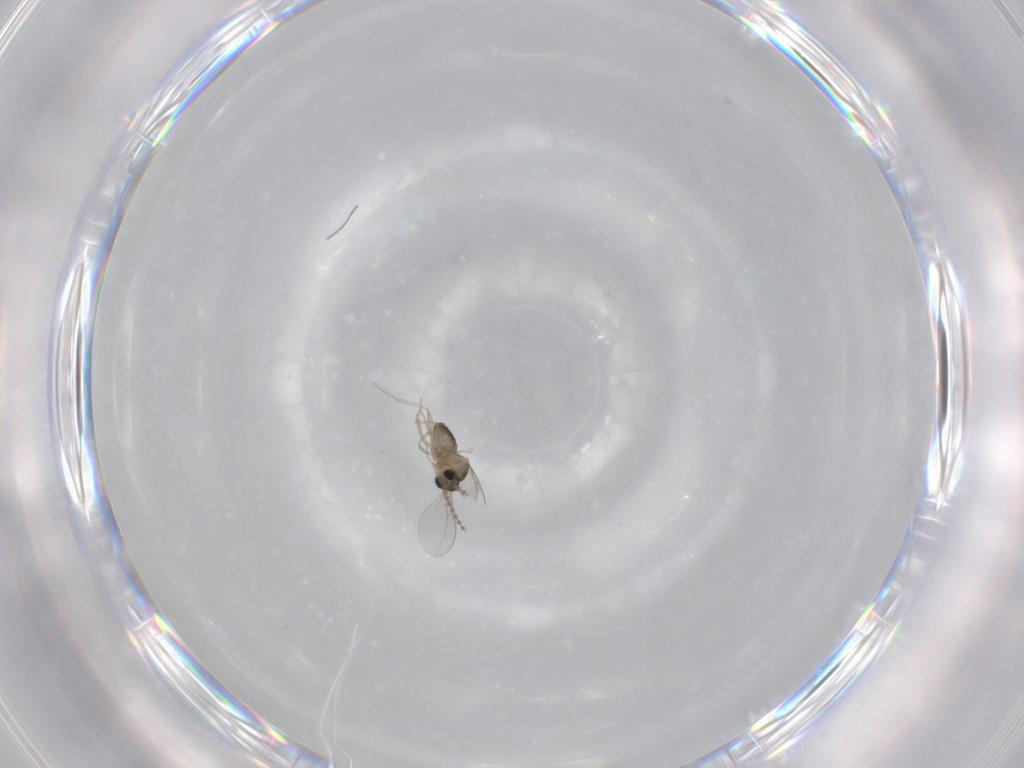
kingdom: Animalia
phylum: Arthropoda
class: Insecta
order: Diptera
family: Cecidomyiidae
